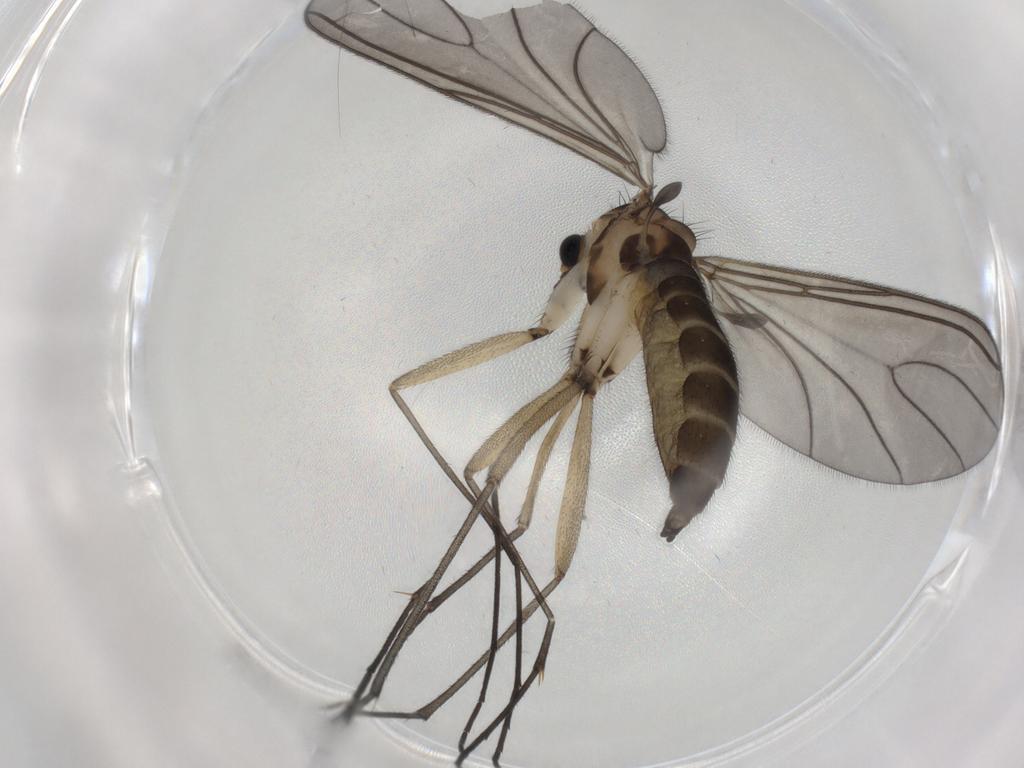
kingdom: Animalia
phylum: Arthropoda
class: Insecta
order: Diptera
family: Sciaridae
